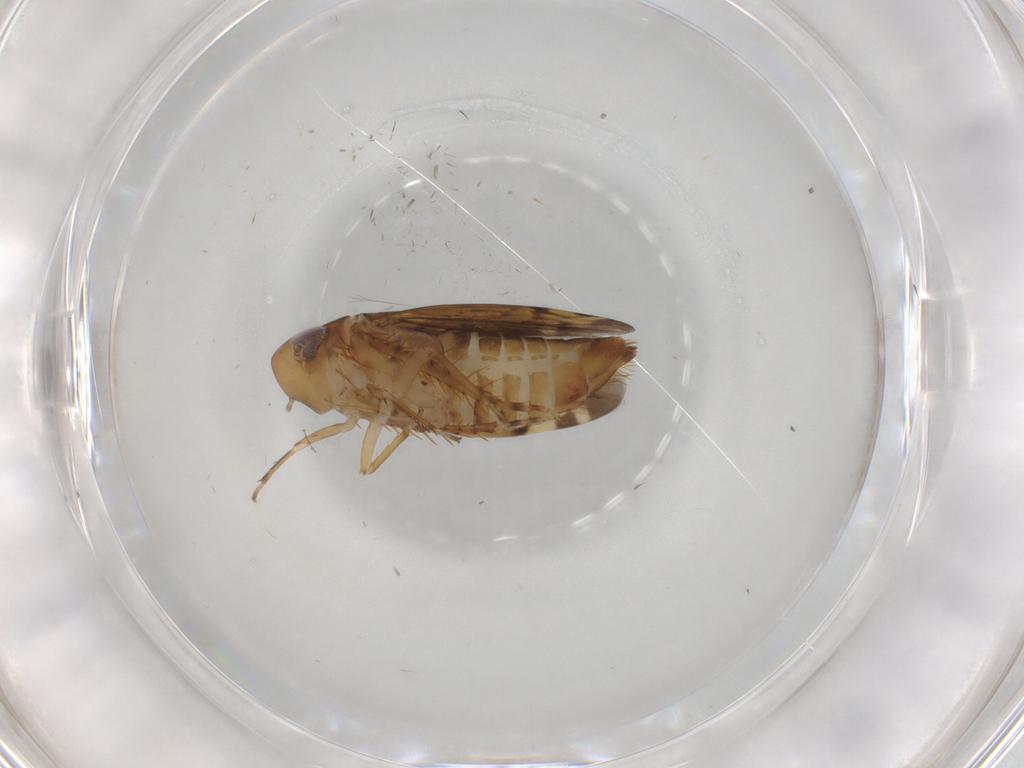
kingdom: Animalia
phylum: Arthropoda
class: Insecta
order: Hemiptera
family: Cicadellidae
